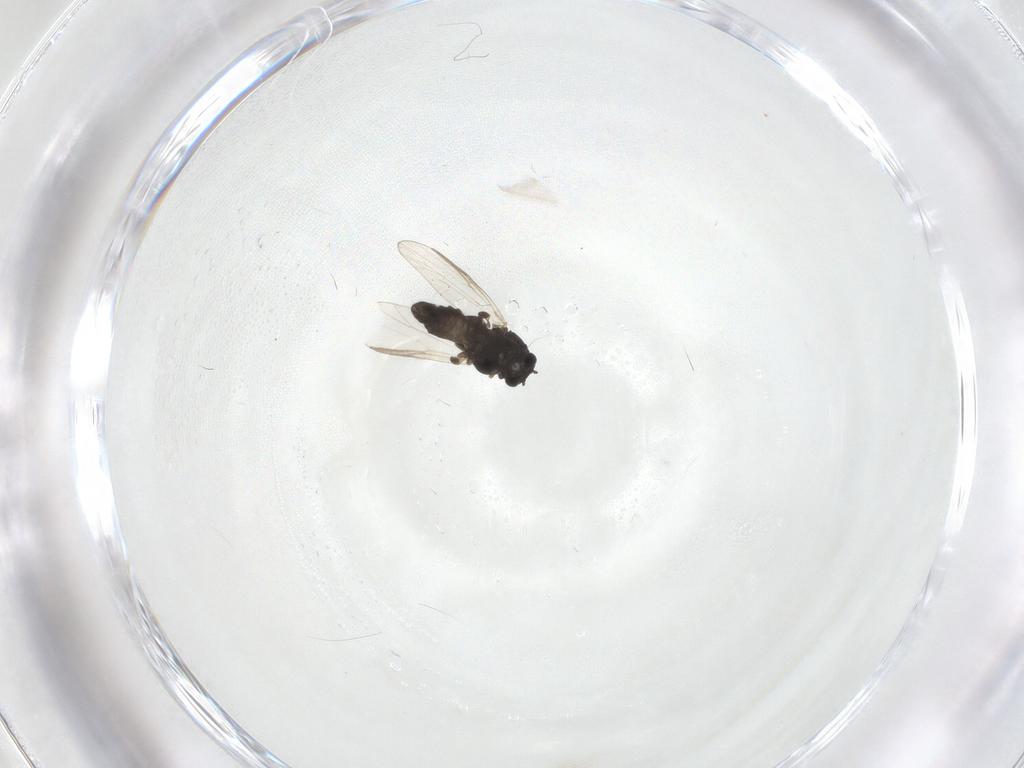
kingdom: Animalia
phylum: Arthropoda
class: Insecta
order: Diptera
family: Chironomidae
